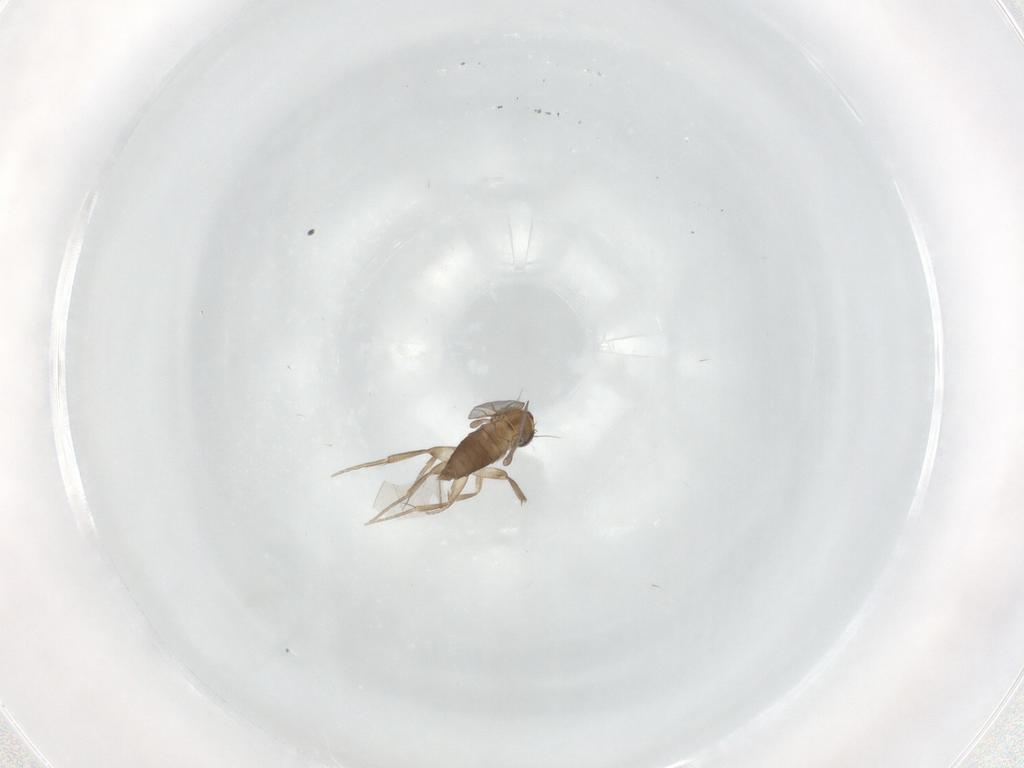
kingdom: Animalia
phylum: Arthropoda
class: Insecta
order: Diptera
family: Phoridae
